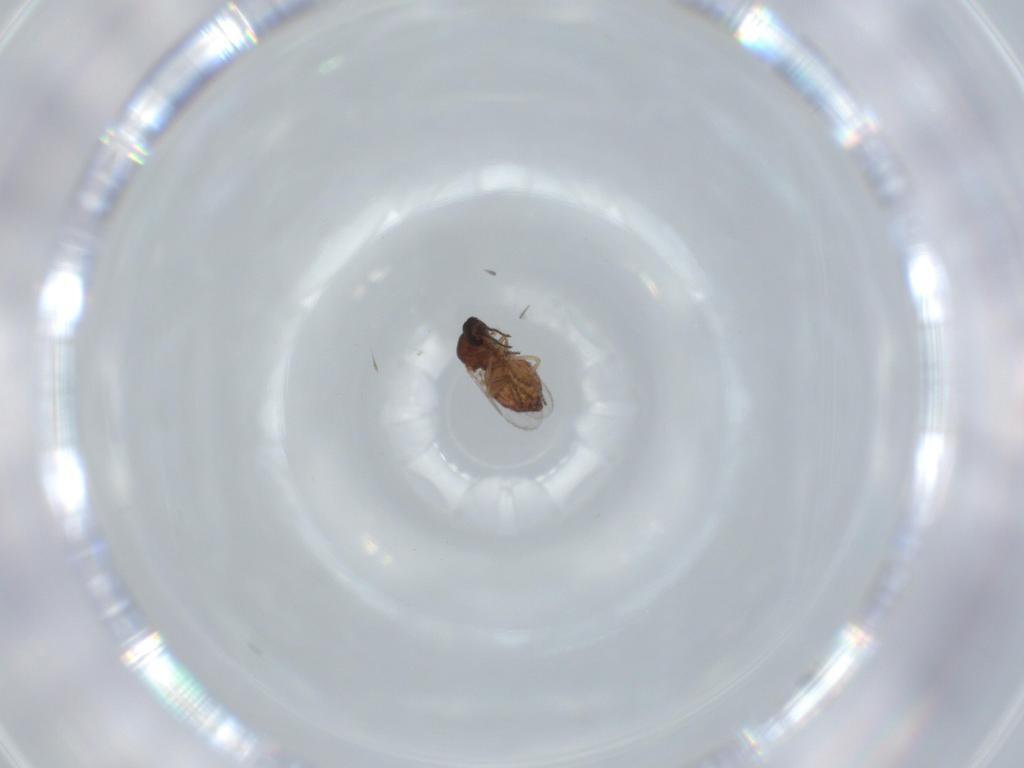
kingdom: Animalia
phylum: Arthropoda
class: Insecta
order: Diptera
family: Ceratopogonidae
